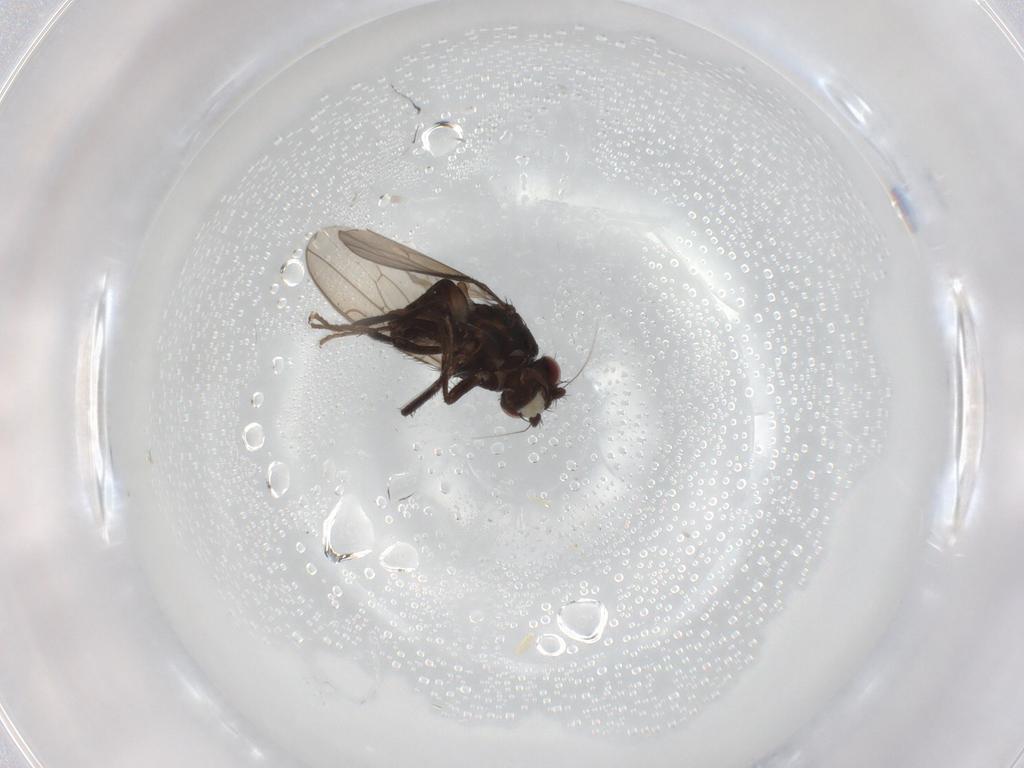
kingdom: Animalia
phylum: Arthropoda
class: Insecta
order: Diptera
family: Sphaeroceridae
